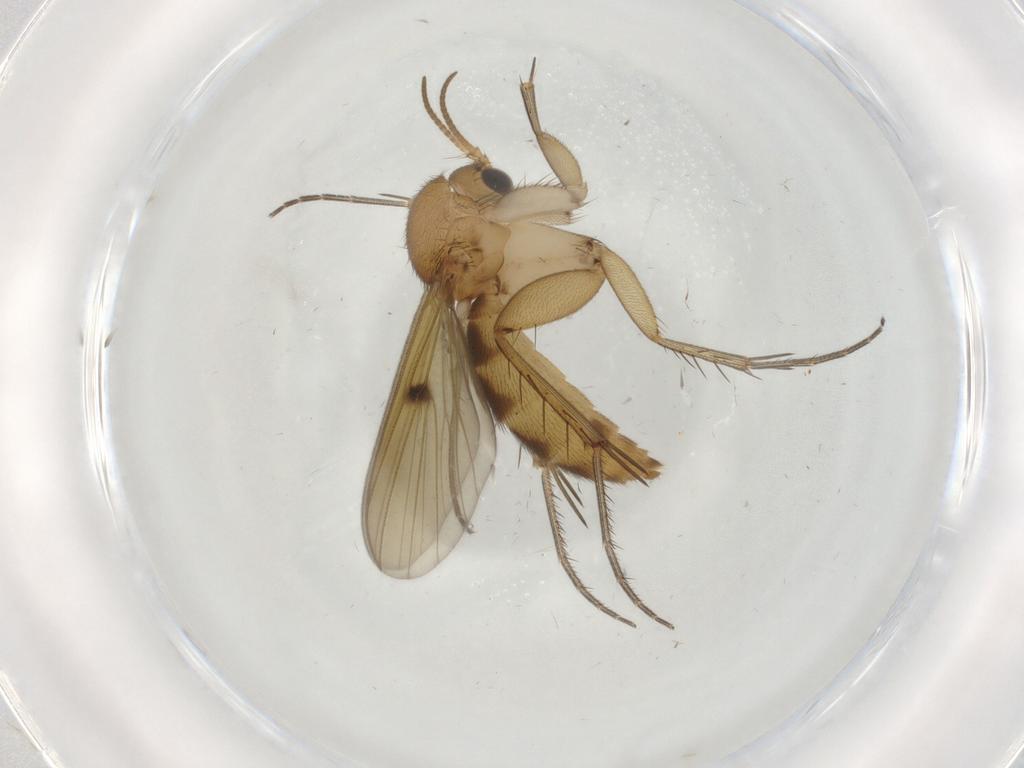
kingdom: Animalia
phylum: Arthropoda
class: Insecta
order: Diptera
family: Mycetophilidae
